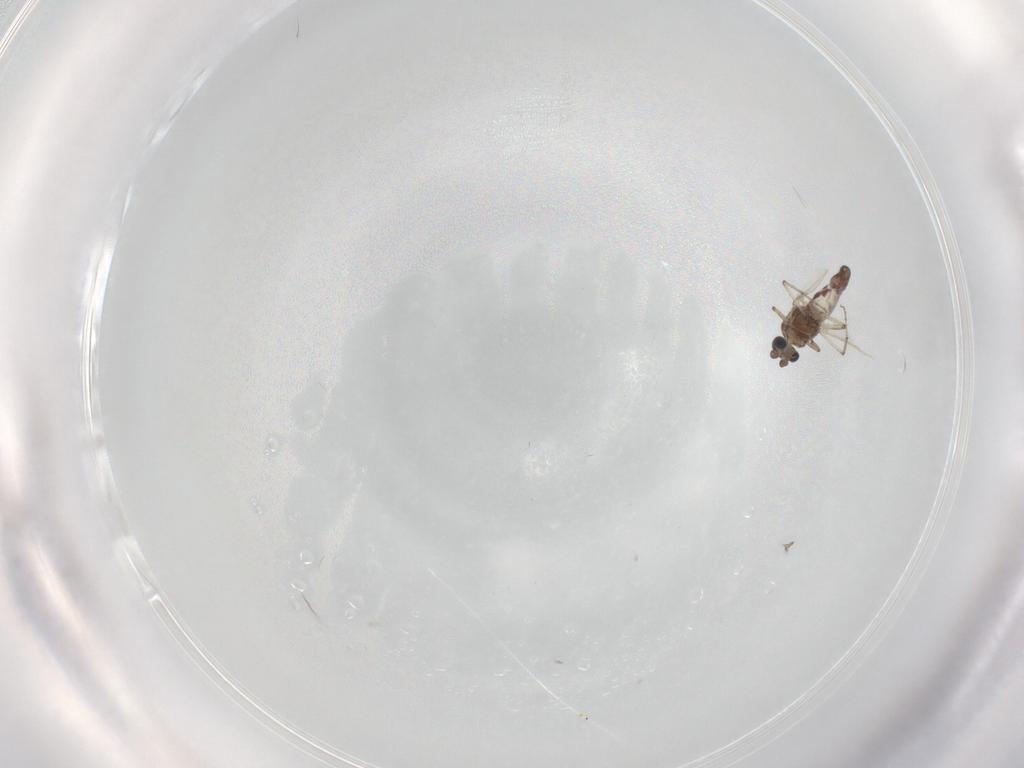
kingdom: Animalia
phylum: Arthropoda
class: Insecta
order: Diptera
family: Ceratopogonidae
